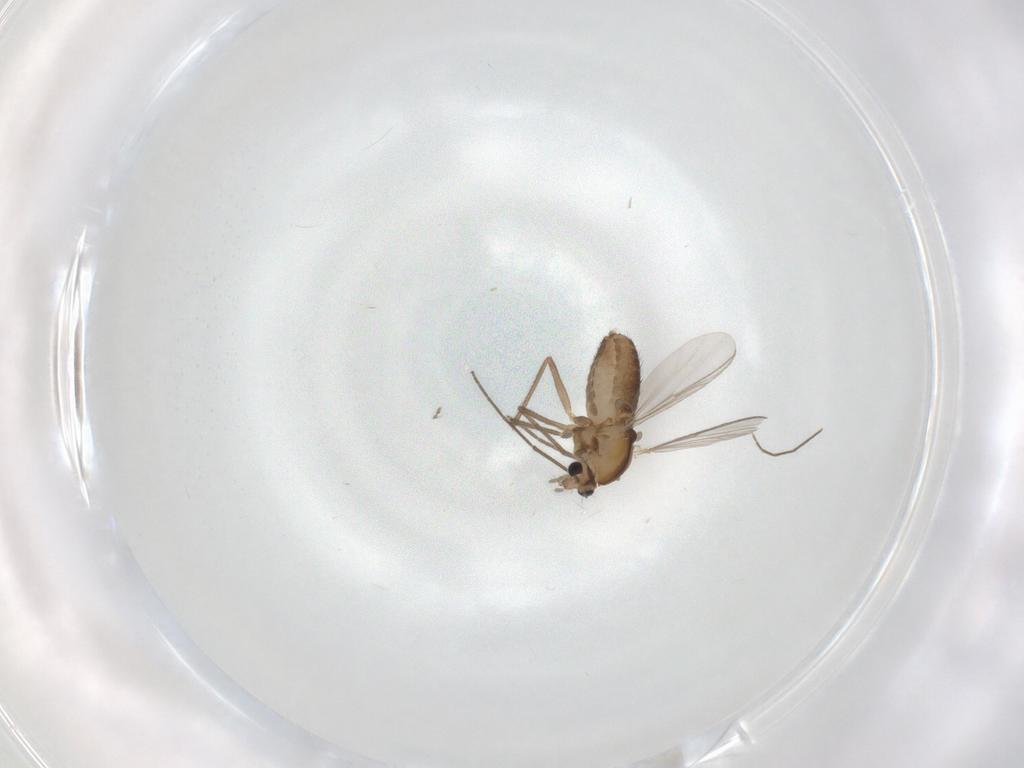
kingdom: Animalia
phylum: Arthropoda
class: Insecta
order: Diptera
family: Chironomidae
